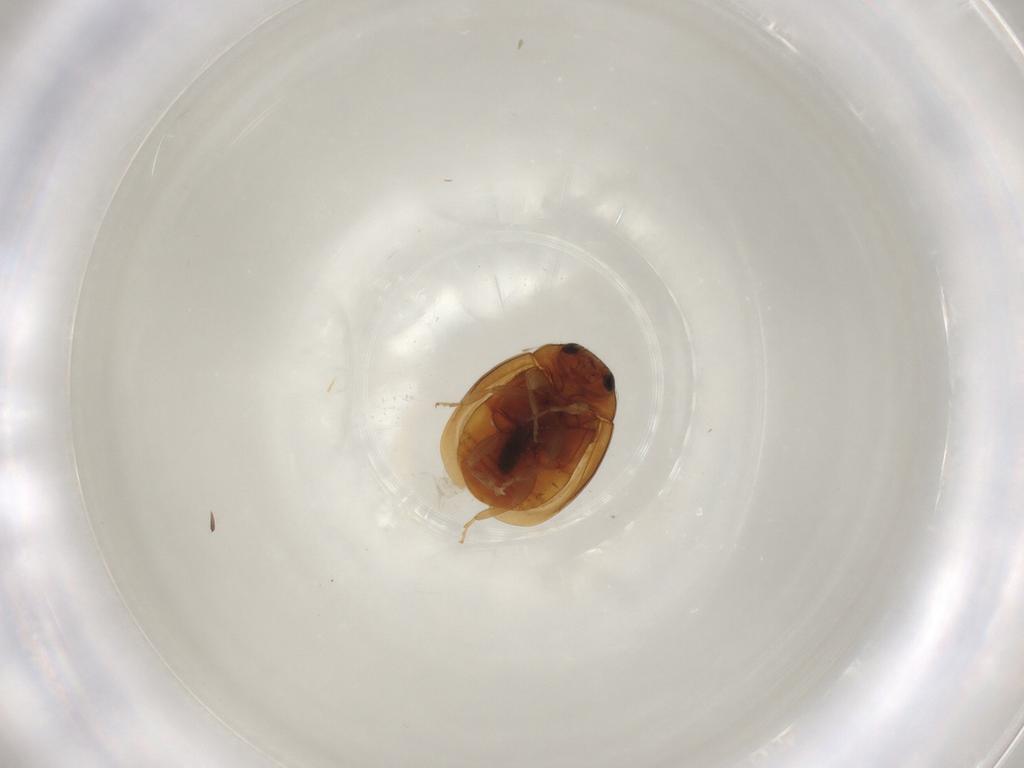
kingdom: Animalia
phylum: Arthropoda
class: Insecta
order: Coleoptera
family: Coccinellidae
